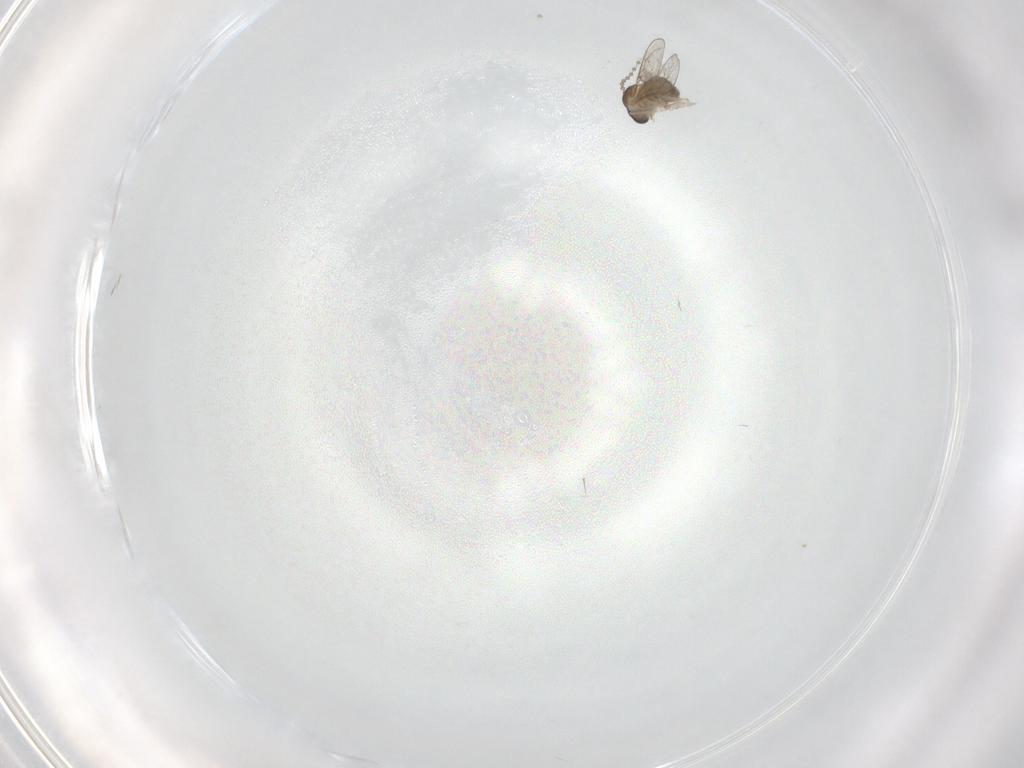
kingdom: Animalia
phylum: Arthropoda
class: Insecta
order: Diptera
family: Cecidomyiidae
